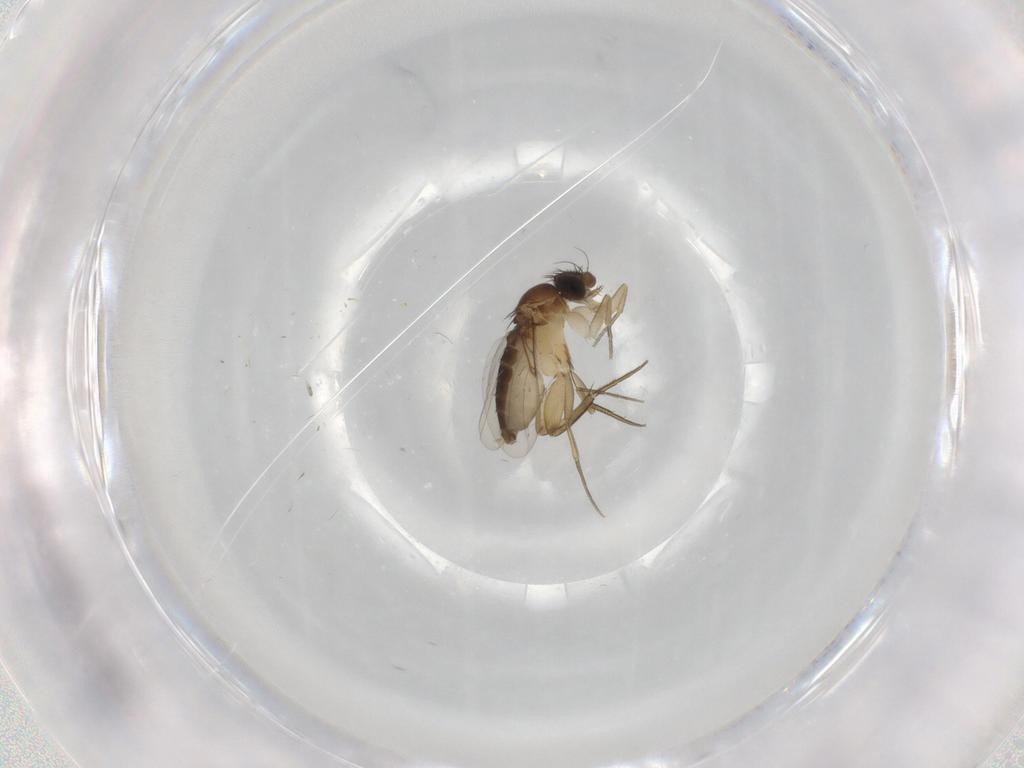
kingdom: Animalia
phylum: Arthropoda
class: Insecta
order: Diptera
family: Phoridae
